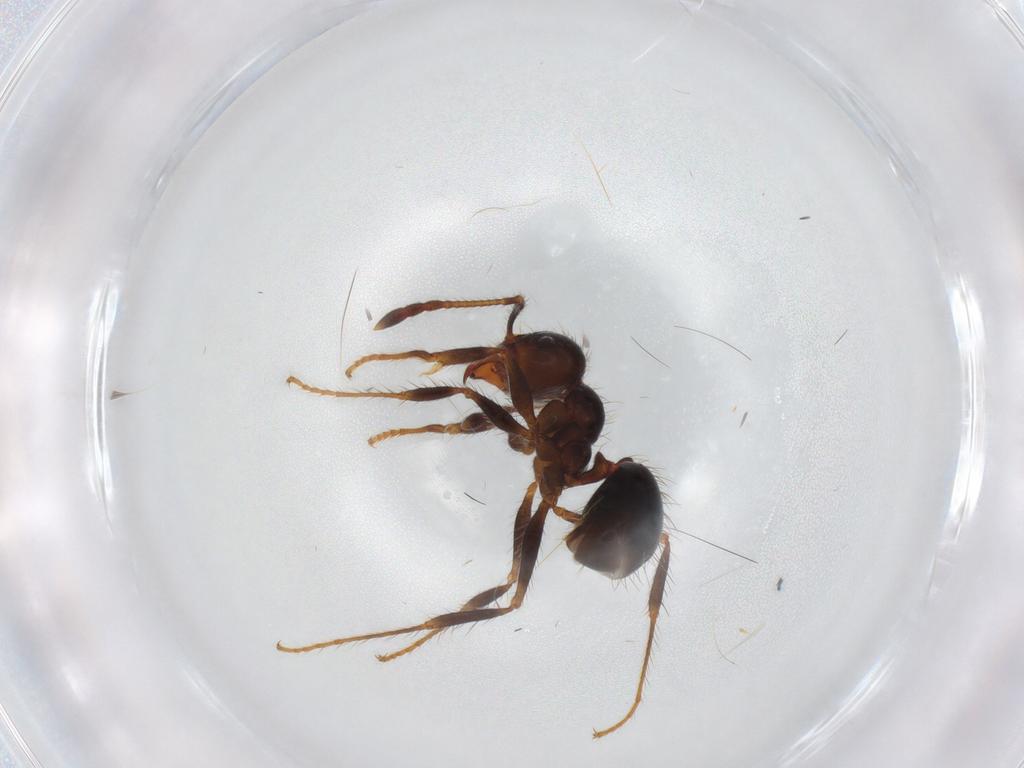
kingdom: Animalia
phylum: Arthropoda
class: Insecta
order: Hymenoptera
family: Formicidae
